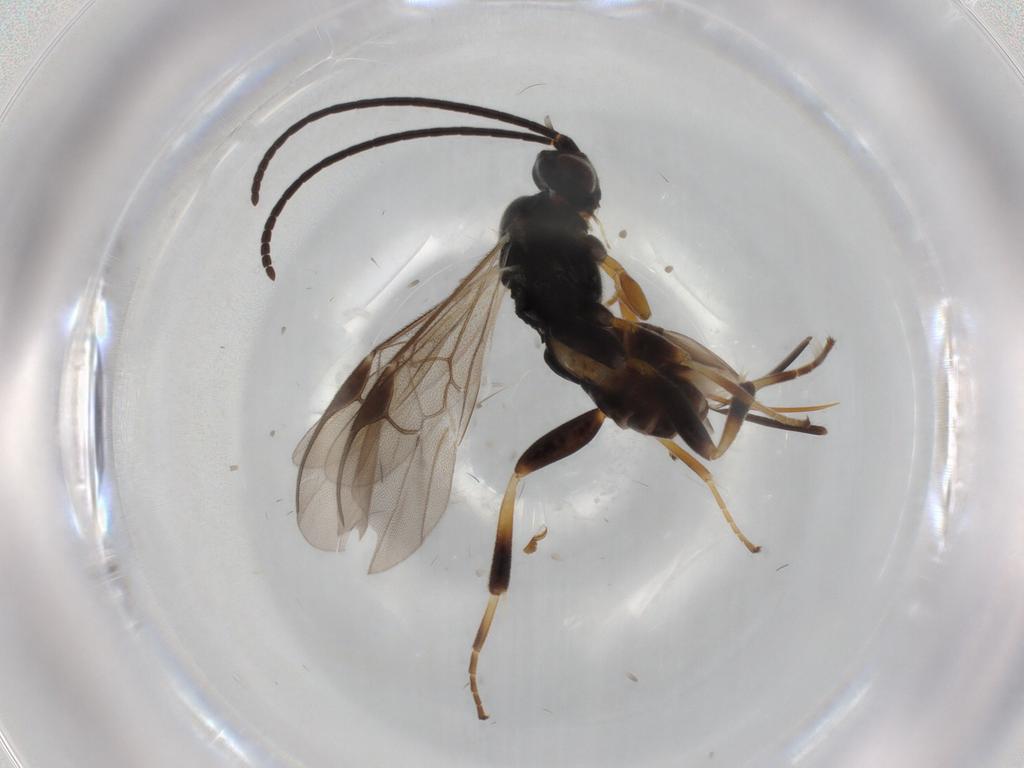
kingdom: Animalia
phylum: Arthropoda
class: Insecta
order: Hymenoptera
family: Braconidae
